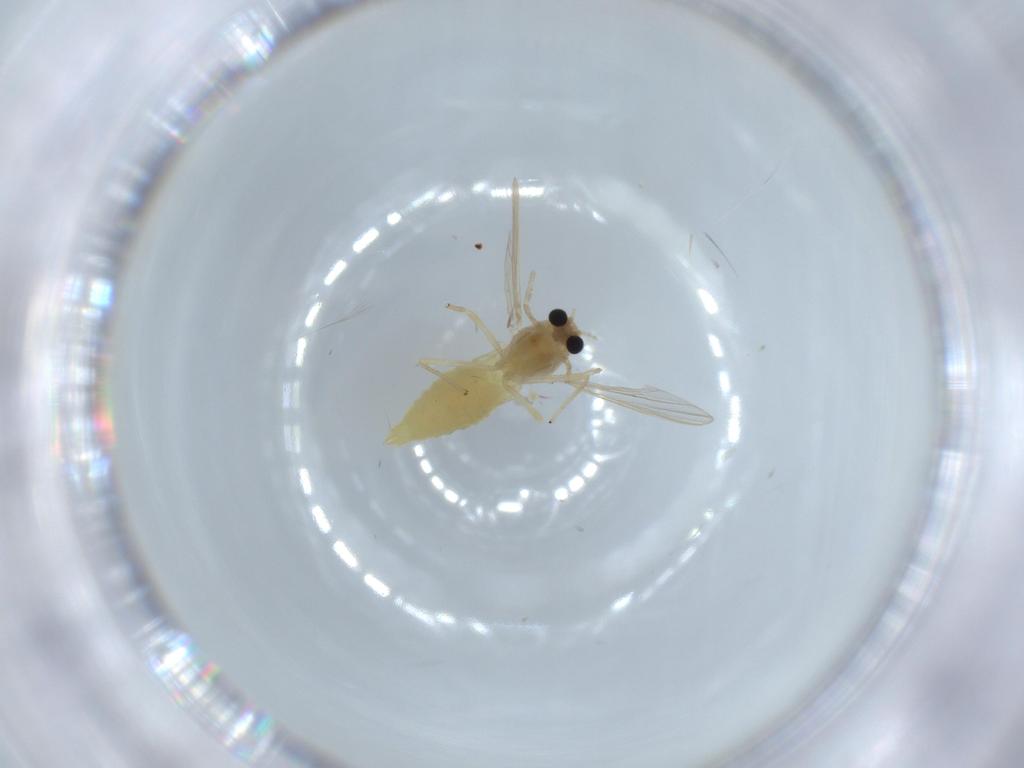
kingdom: Animalia
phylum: Arthropoda
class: Insecta
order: Diptera
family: Chironomidae
